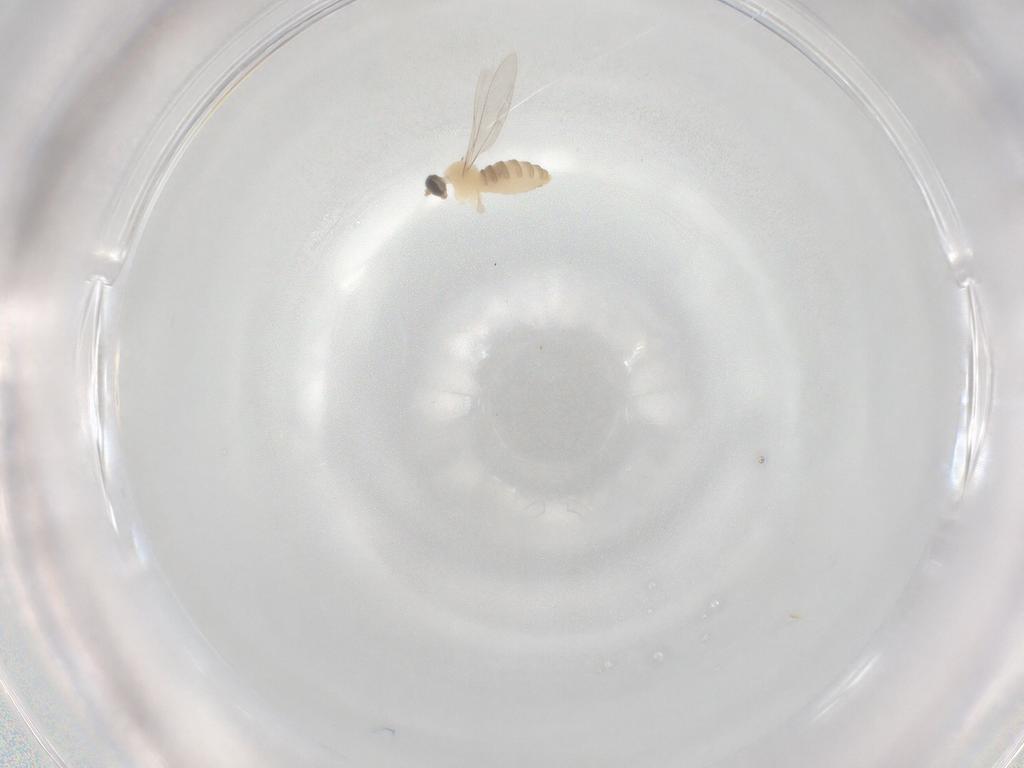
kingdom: Animalia
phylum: Arthropoda
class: Insecta
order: Diptera
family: Cecidomyiidae
